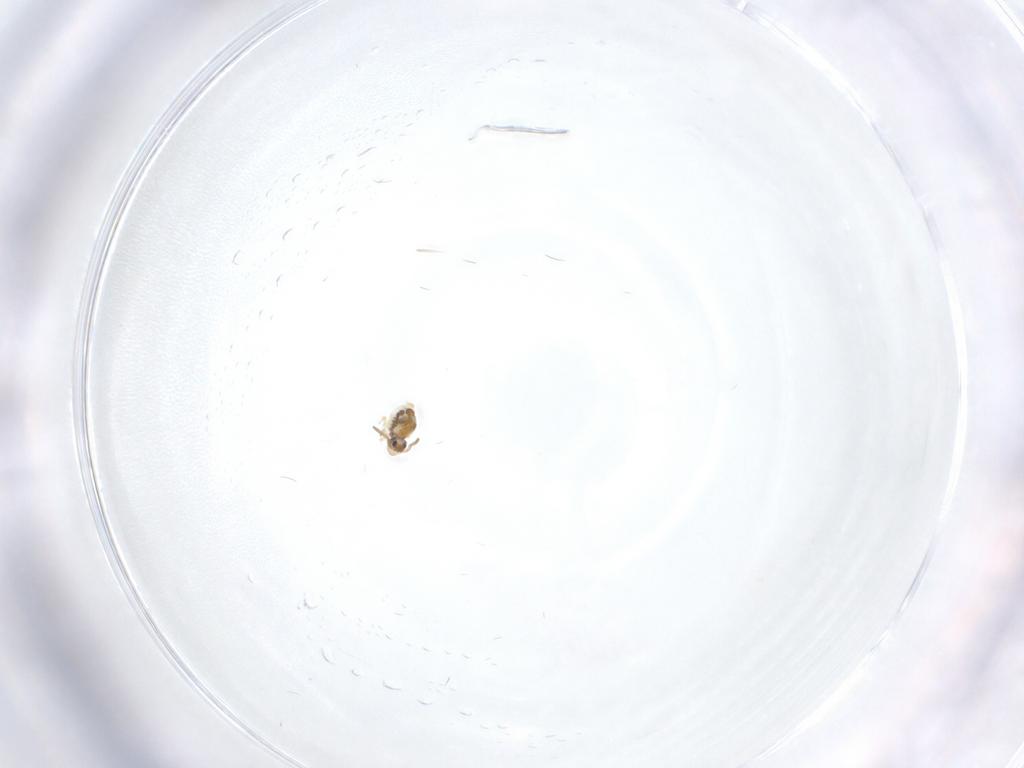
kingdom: Animalia
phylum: Arthropoda
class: Collembola
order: Symphypleona
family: Katiannidae
